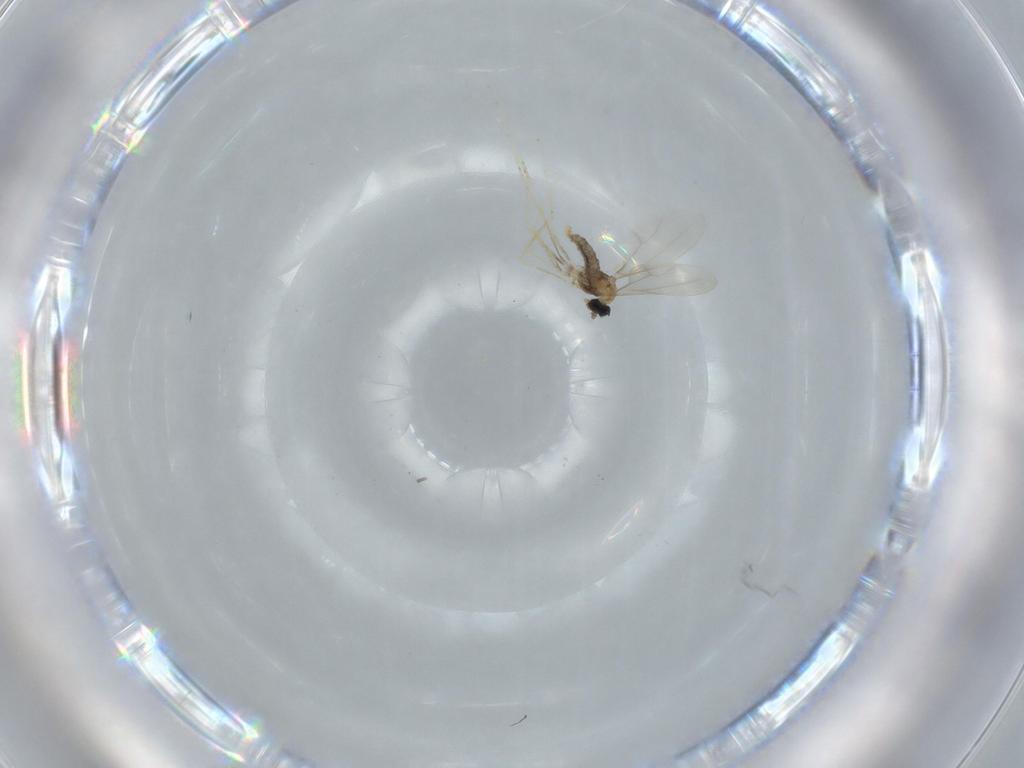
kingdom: Animalia
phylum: Arthropoda
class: Insecta
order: Diptera
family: Cecidomyiidae
